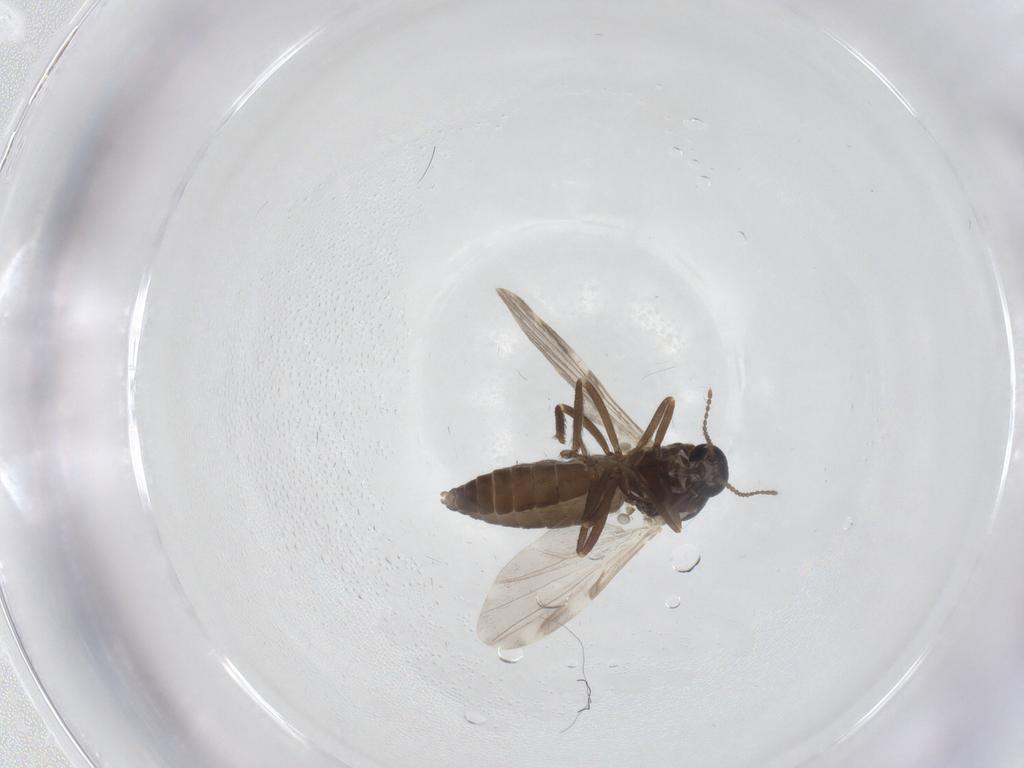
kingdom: Animalia
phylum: Arthropoda
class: Insecta
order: Diptera
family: Ceratopogonidae
